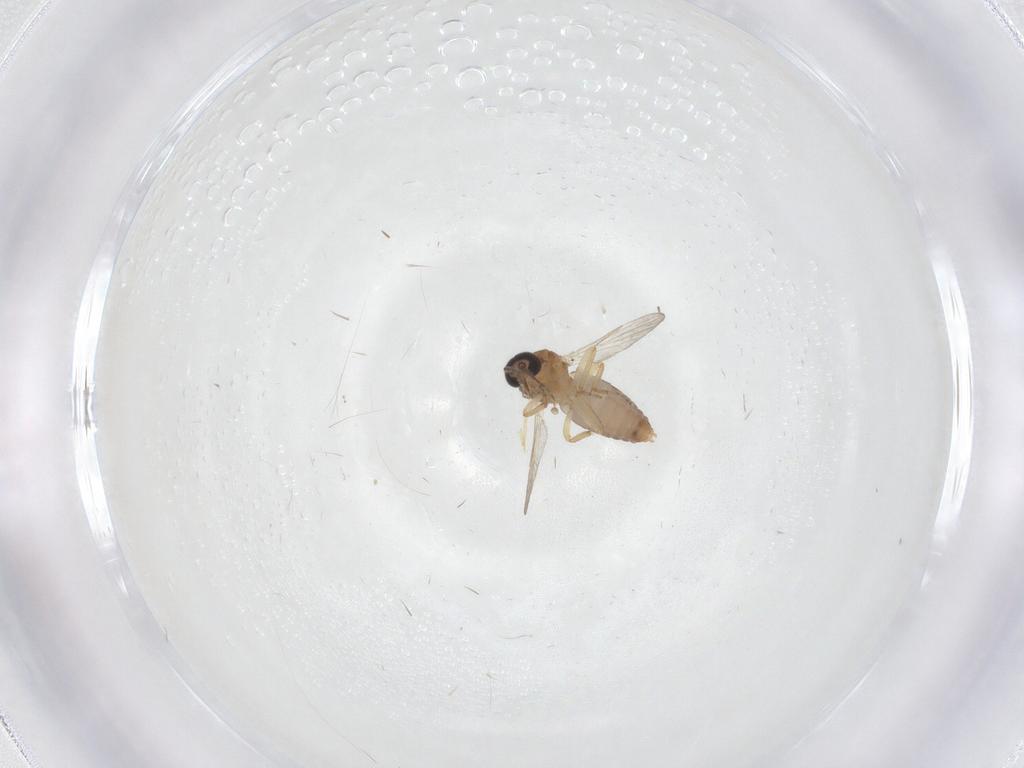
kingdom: Animalia
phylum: Arthropoda
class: Insecta
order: Diptera
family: Ceratopogonidae
